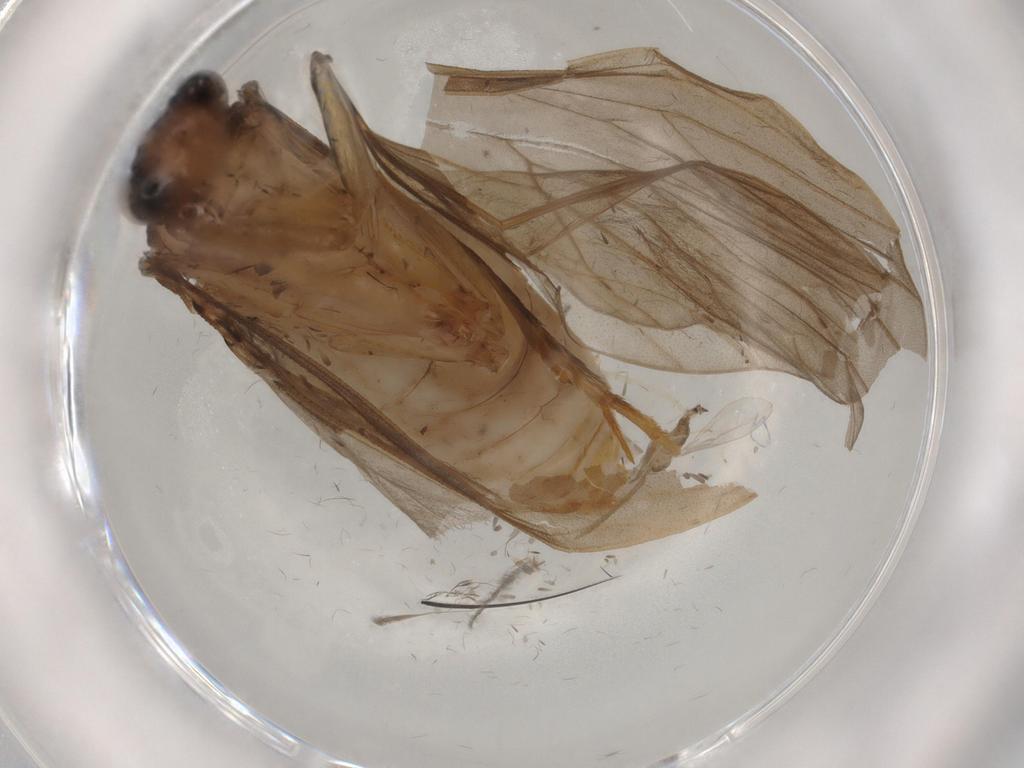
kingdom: Animalia
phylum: Arthropoda
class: Insecta
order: Trichoptera
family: Lepidostomatidae
